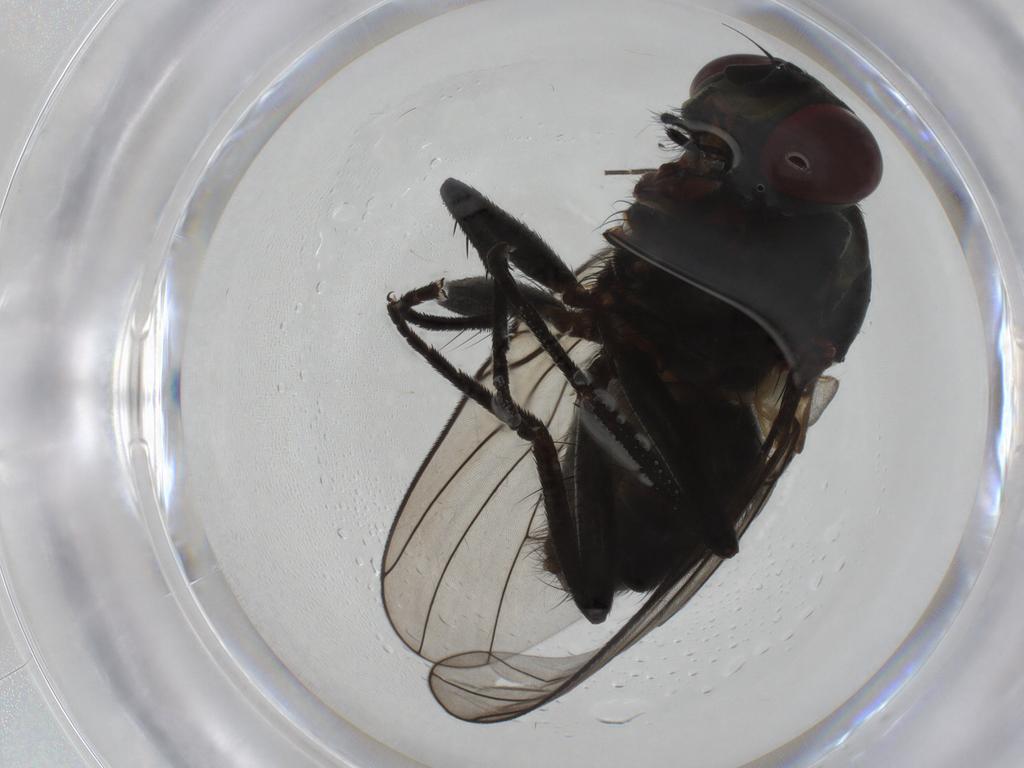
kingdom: Animalia
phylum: Arthropoda
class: Insecta
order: Diptera
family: Muscidae
